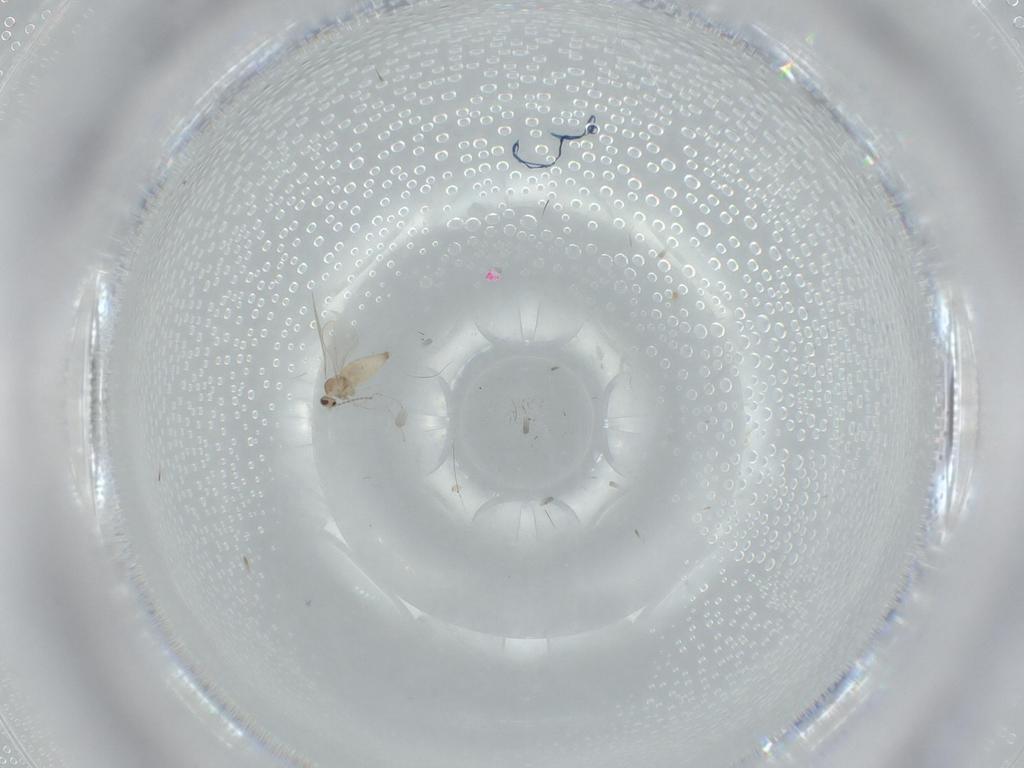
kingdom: Animalia
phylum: Arthropoda
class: Insecta
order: Diptera
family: Cecidomyiidae
